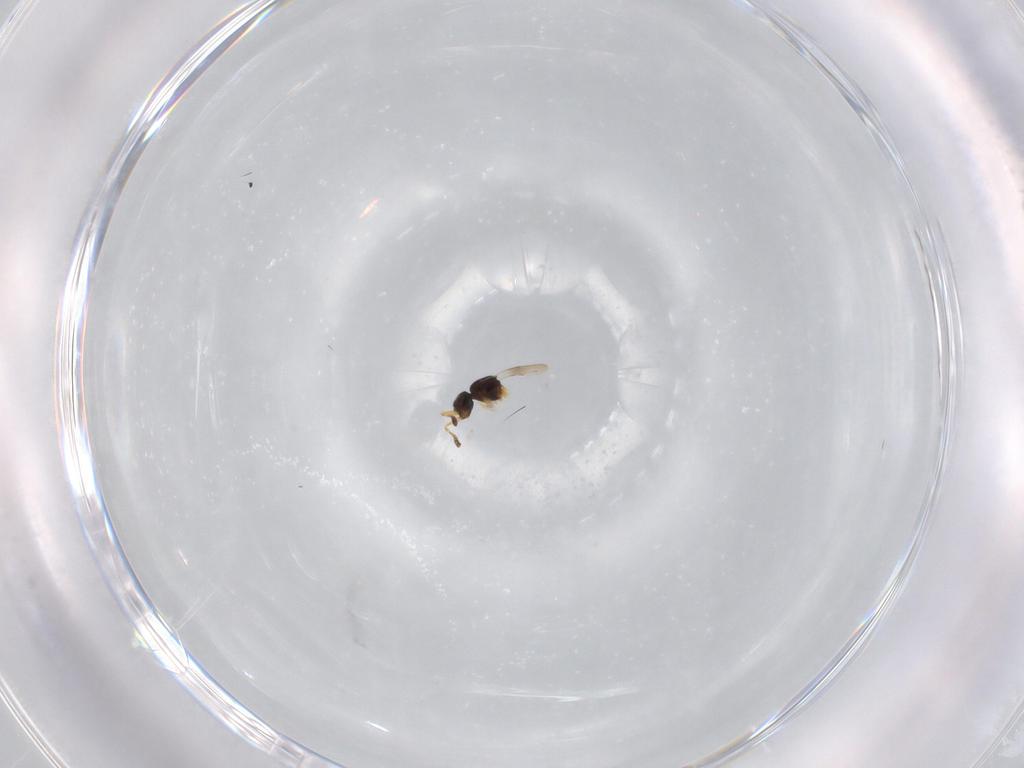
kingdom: Animalia
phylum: Arthropoda
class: Insecta
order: Hymenoptera
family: Ceraphronidae
